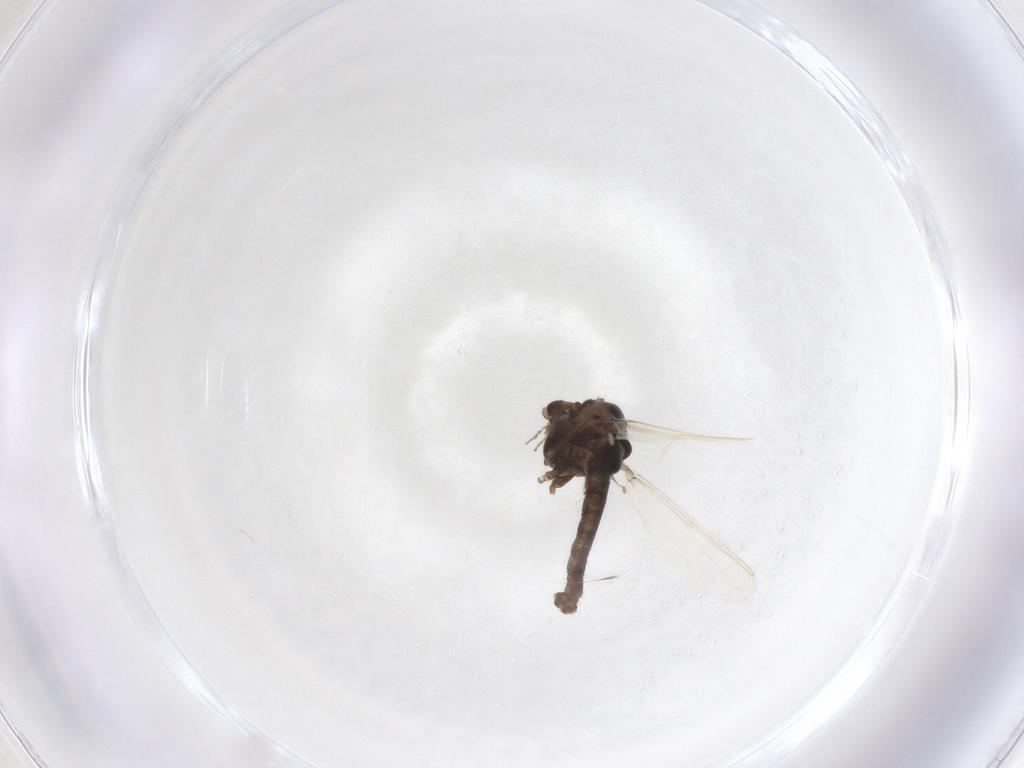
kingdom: Animalia
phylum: Arthropoda
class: Insecta
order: Diptera
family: Chironomidae
